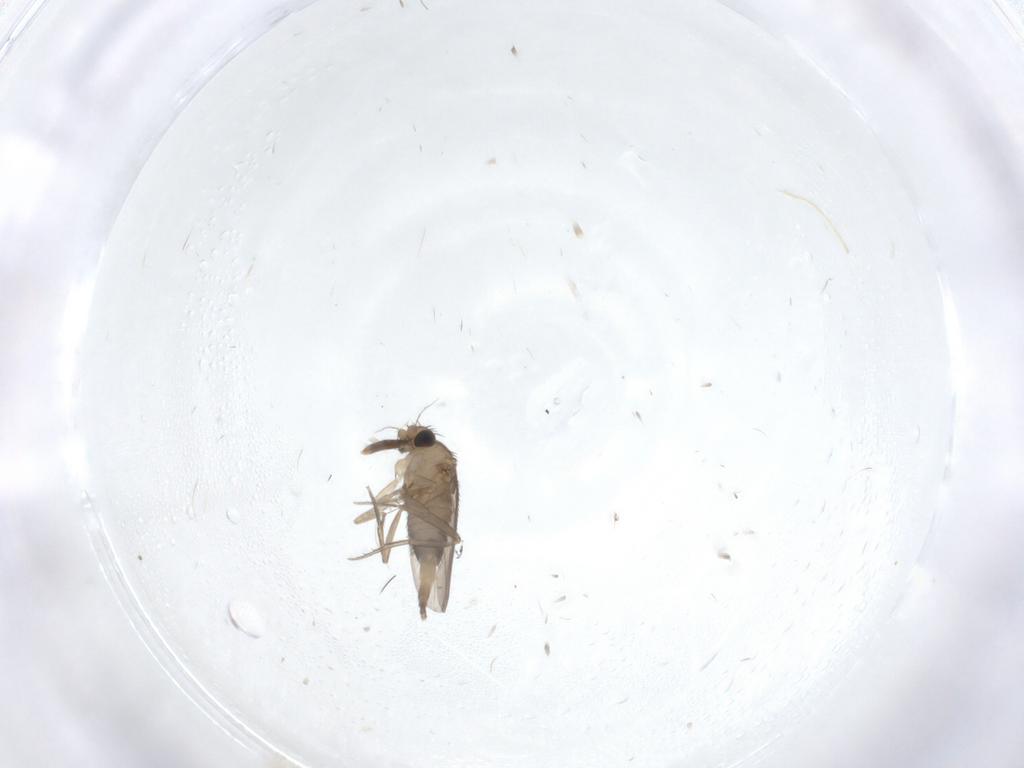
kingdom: Animalia
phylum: Arthropoda
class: Insecta
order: Diptera
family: Phoridae
